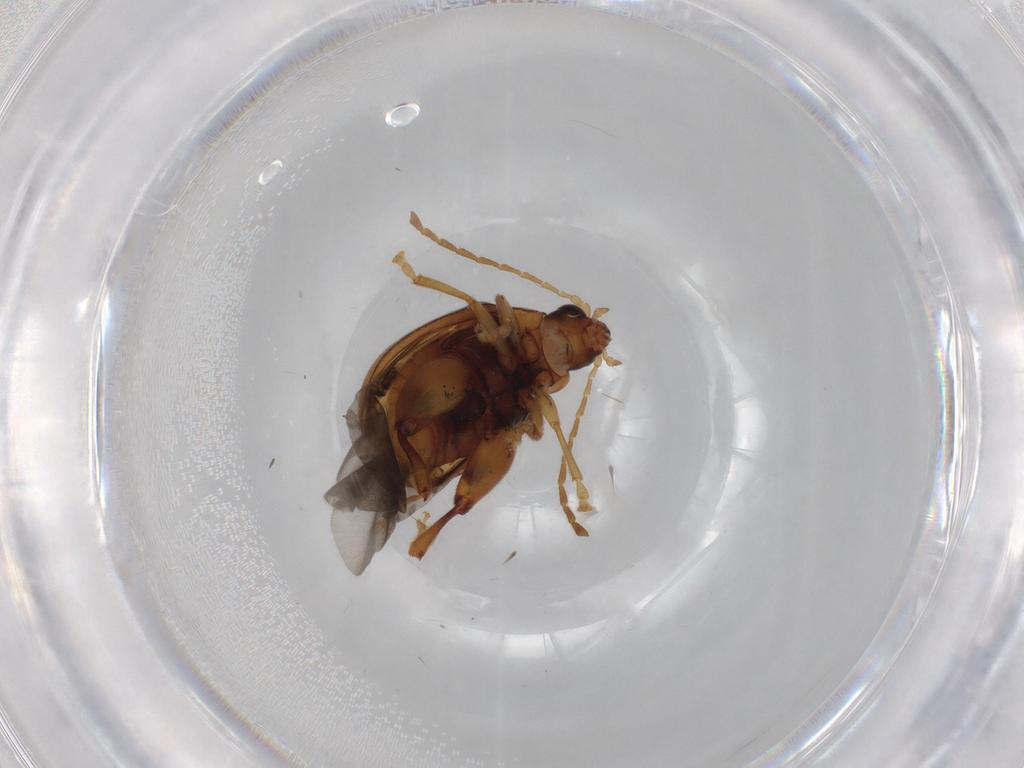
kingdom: Animalia
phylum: Arthropoda
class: Insecta
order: Coleoptera
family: Chrysomelidae
